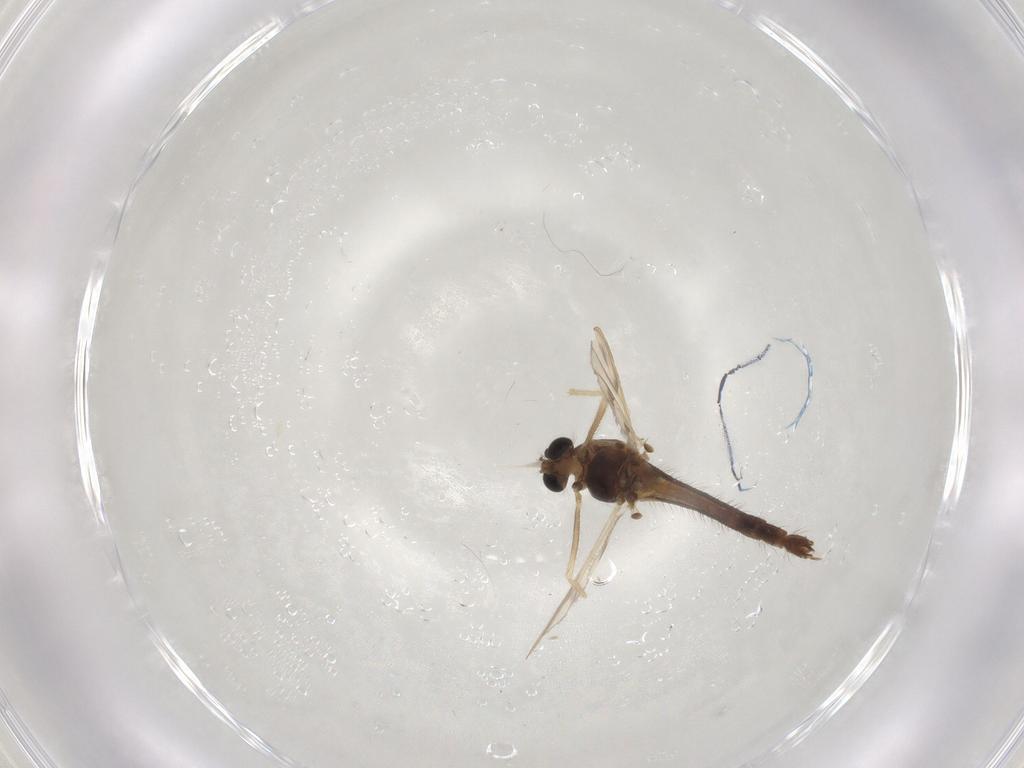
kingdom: Animalia
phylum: Arthropoda
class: Insecta
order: Diptera
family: Chironomidae
